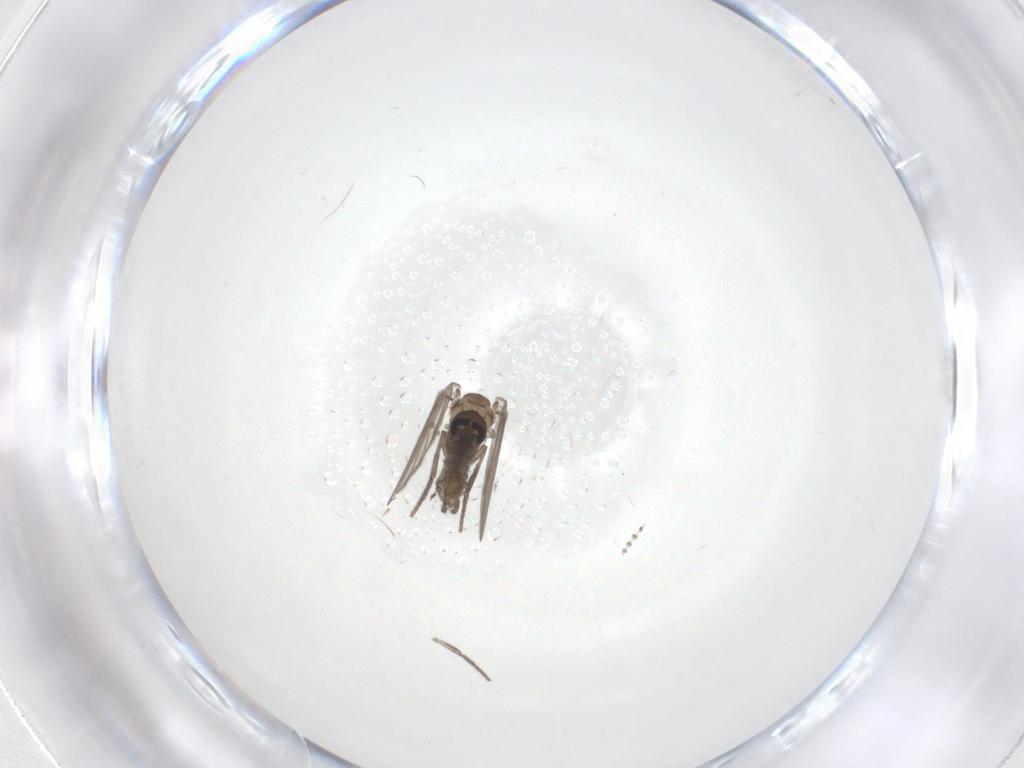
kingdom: Animalia
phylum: Arthropoda
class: Insecta
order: Diptera
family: Psychodidae
